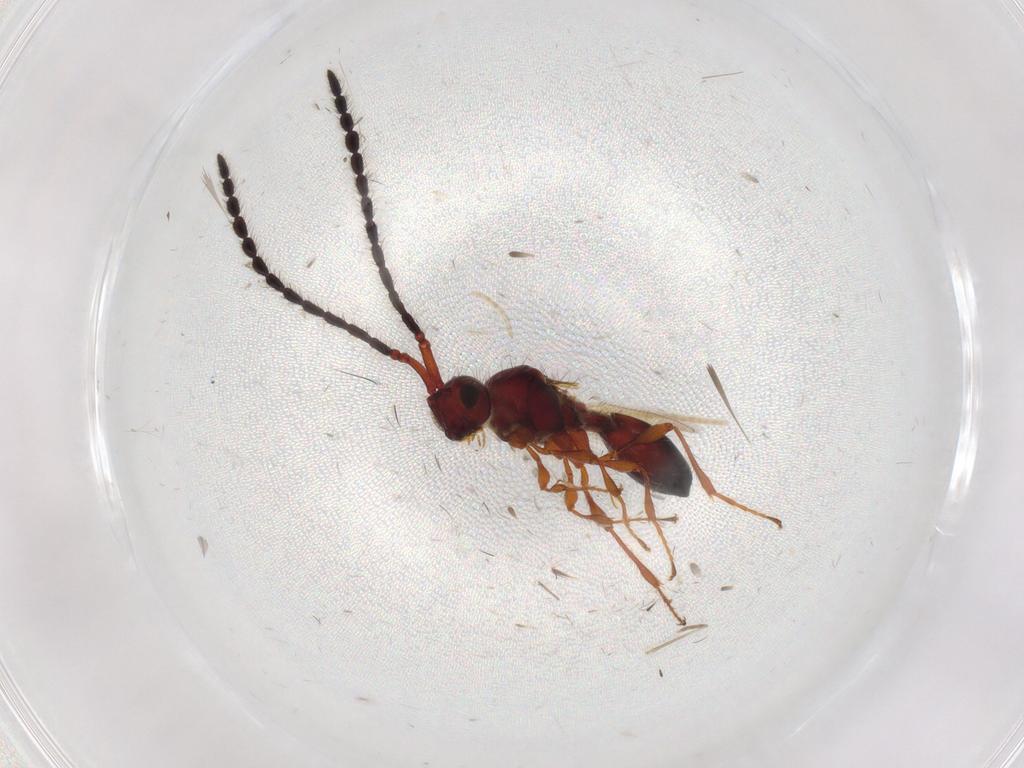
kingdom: Animalia
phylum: Arthropoda
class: Insecta
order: Hymenoptera
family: Diapriidae
